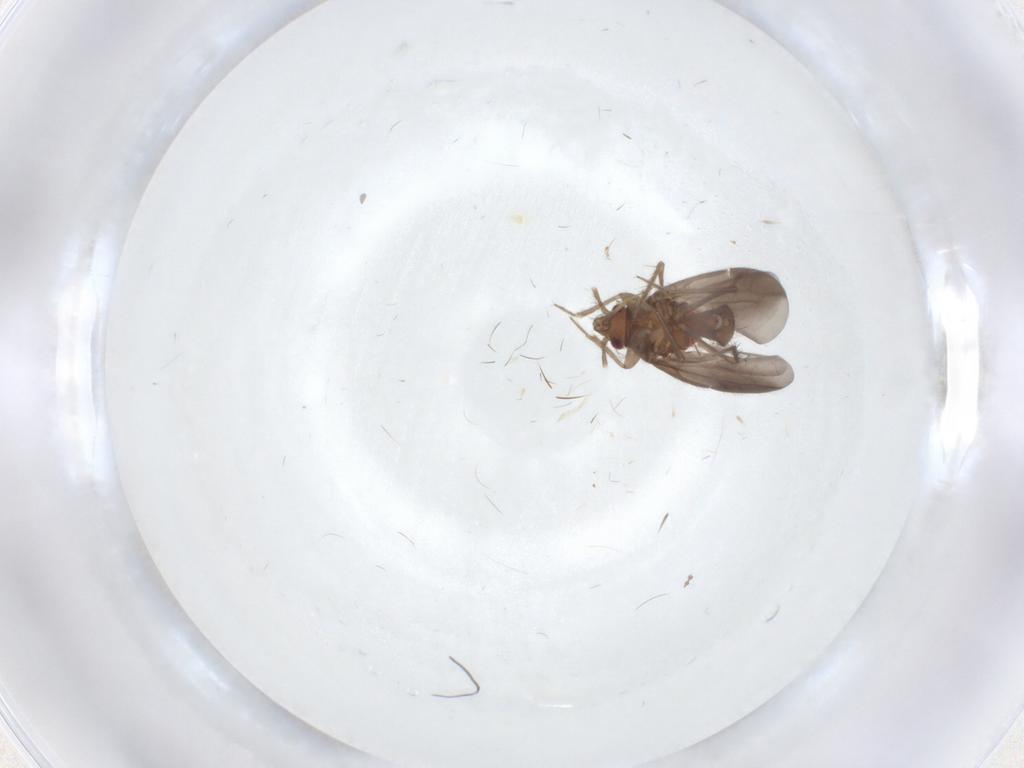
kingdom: Animalia
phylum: Arthropoda
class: Insecta
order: Hemiptera
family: Ceratocombidae
